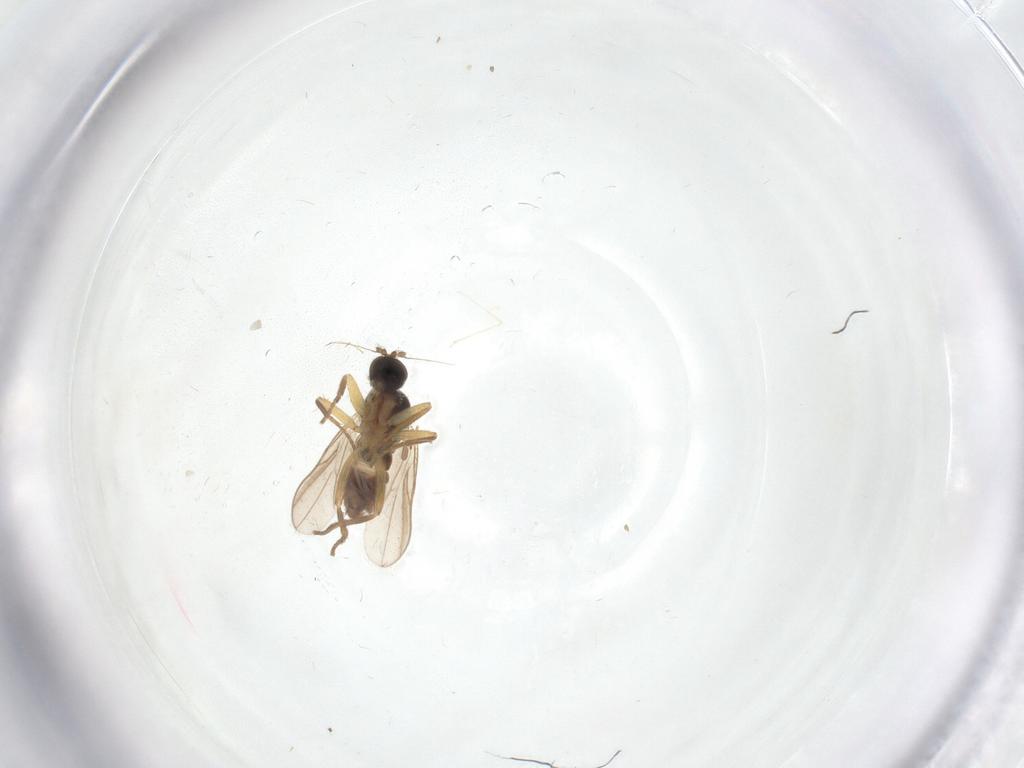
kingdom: Animalia
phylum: Arthropoda
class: Insecta
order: Diptera
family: Hybotidae
